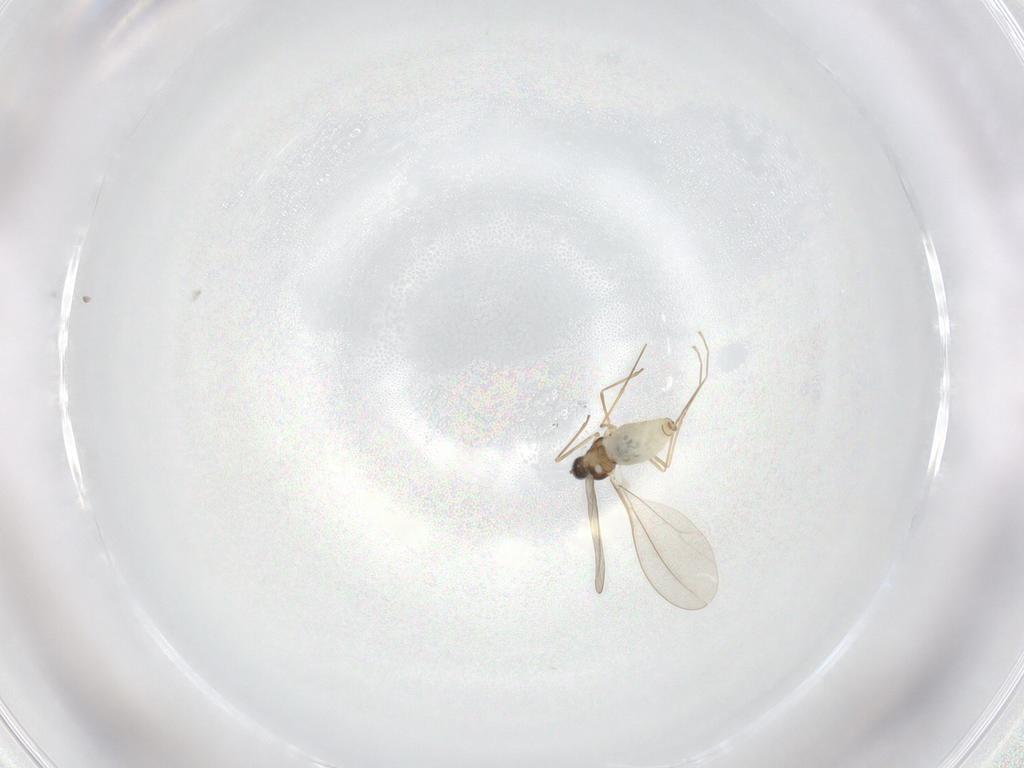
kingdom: Animalia
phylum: Arthropoda
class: Insecta
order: Diptera
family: Cecidomyiidae
